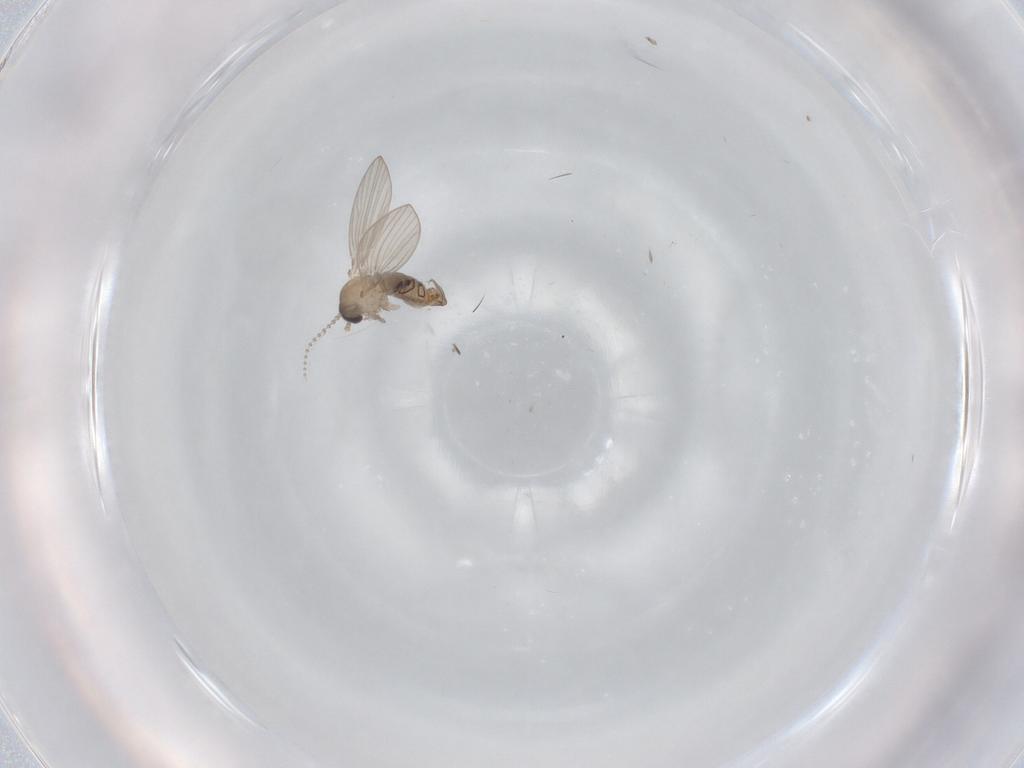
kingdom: Animalia
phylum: Arthropoda
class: Insecta
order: Diptera
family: Psychodidae
